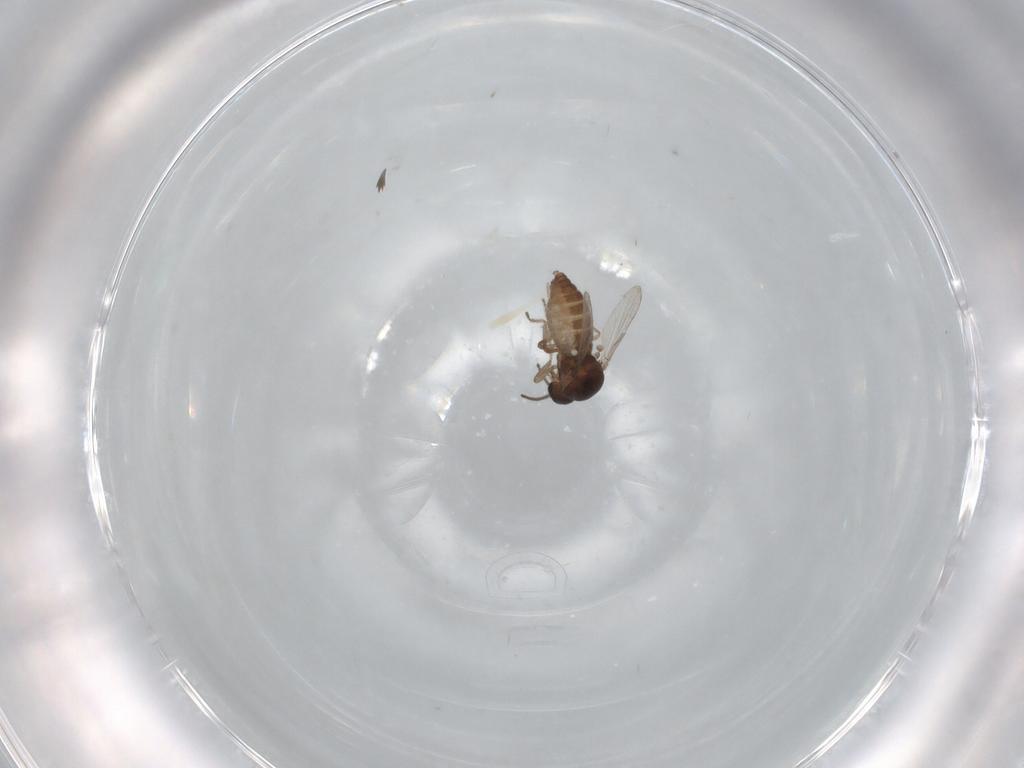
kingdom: Animalia
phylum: Arthropoda
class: Insecta
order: Diptera
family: Ceratopogonidae
